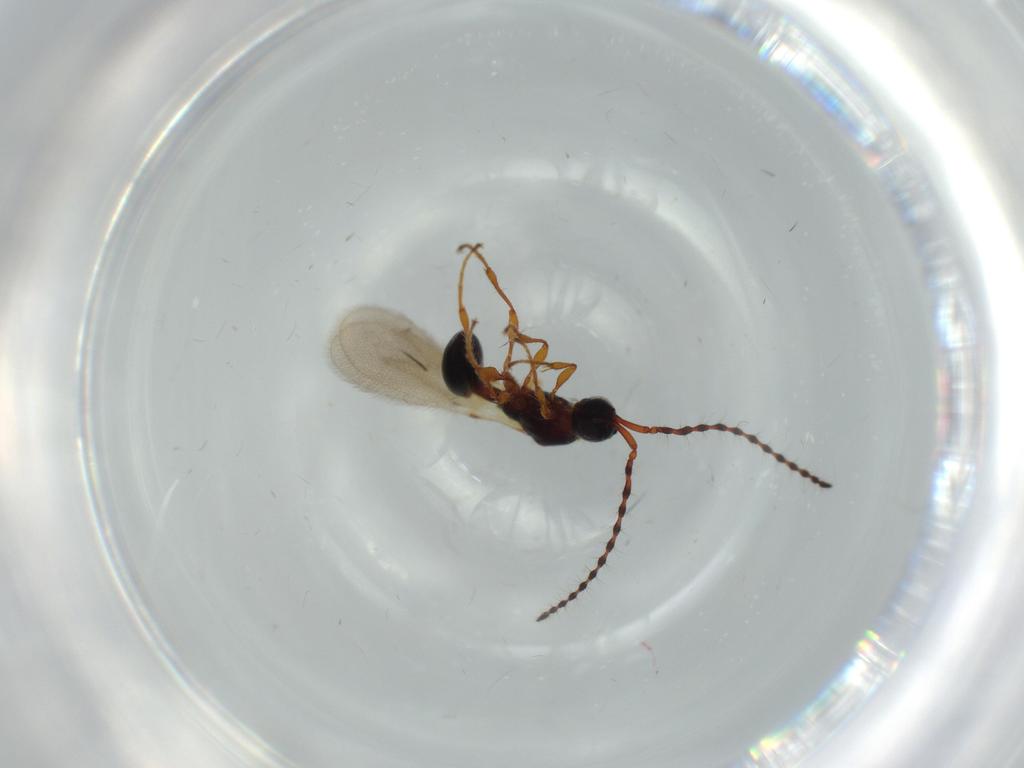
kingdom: Animalia
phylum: Arthropoda
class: Insecta
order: Hymenoptera
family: Diapriidae
